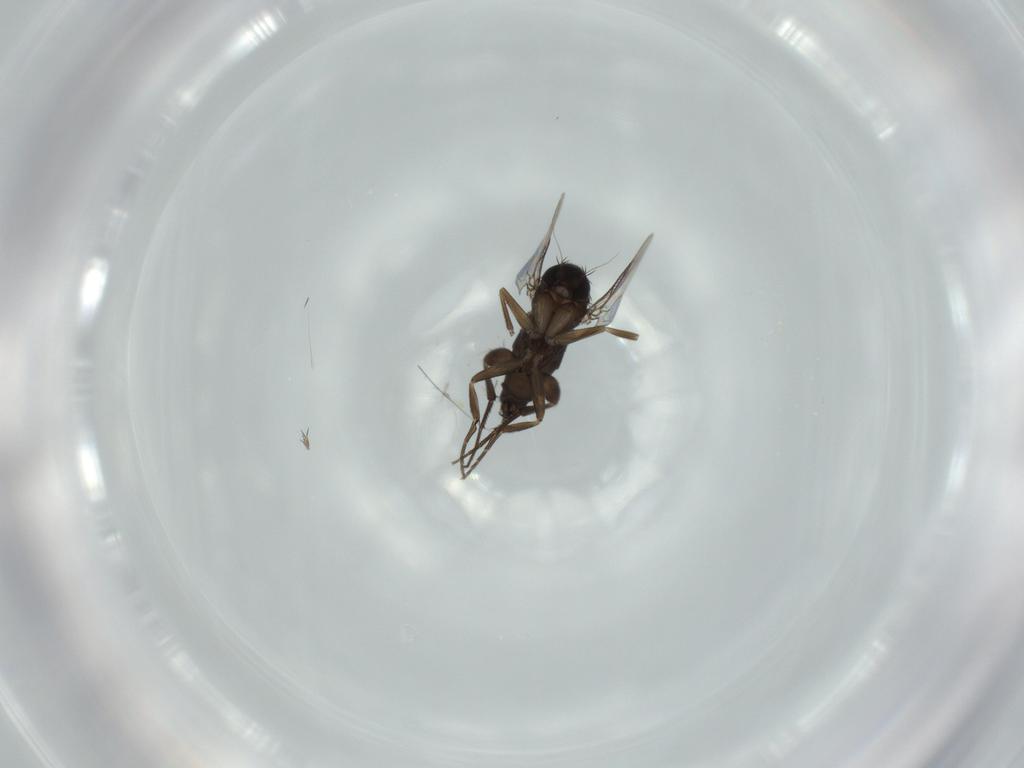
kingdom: Animalia
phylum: Arthropoda
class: Insecta
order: Diptera
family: Phoridae
